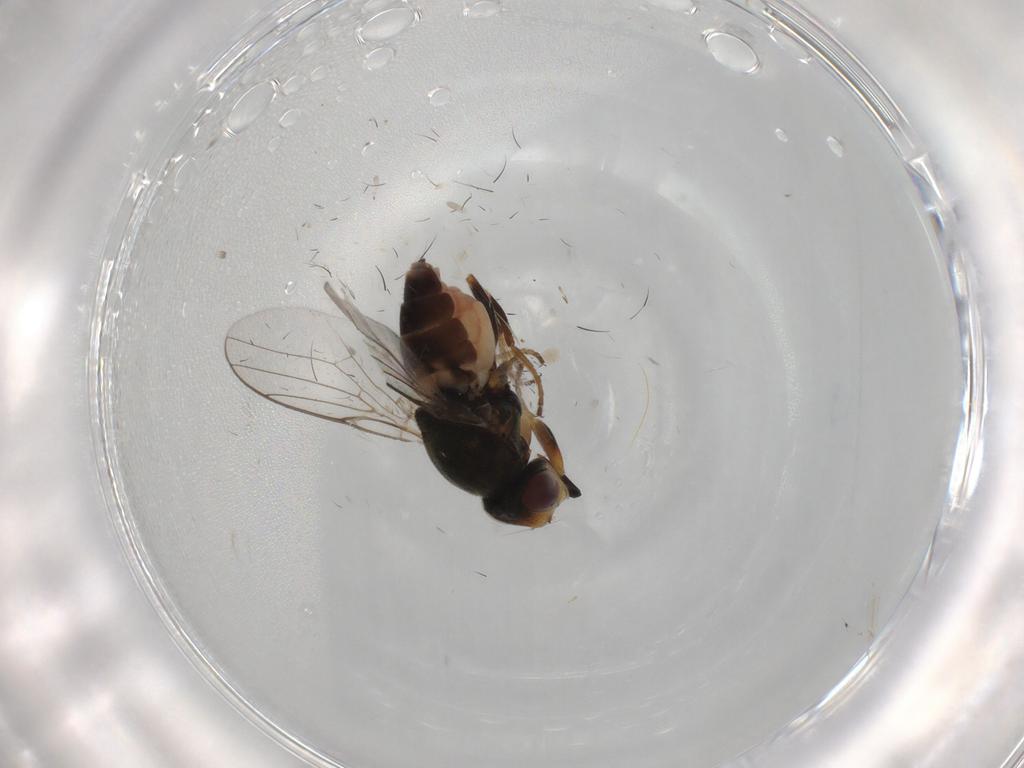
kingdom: Animalia
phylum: Arthropoda
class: Insecta
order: Diptera
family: Chloropidae
